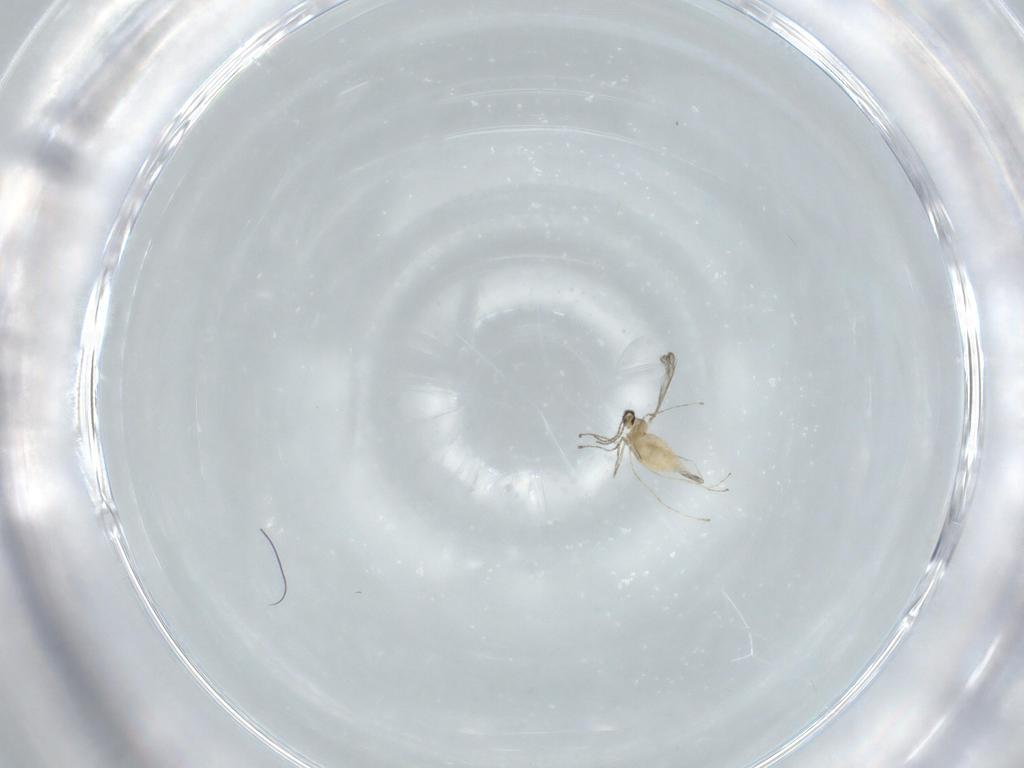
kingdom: Animalia
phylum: Arthropoda
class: Insecta
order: Diptera
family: Cecidomyiidae
